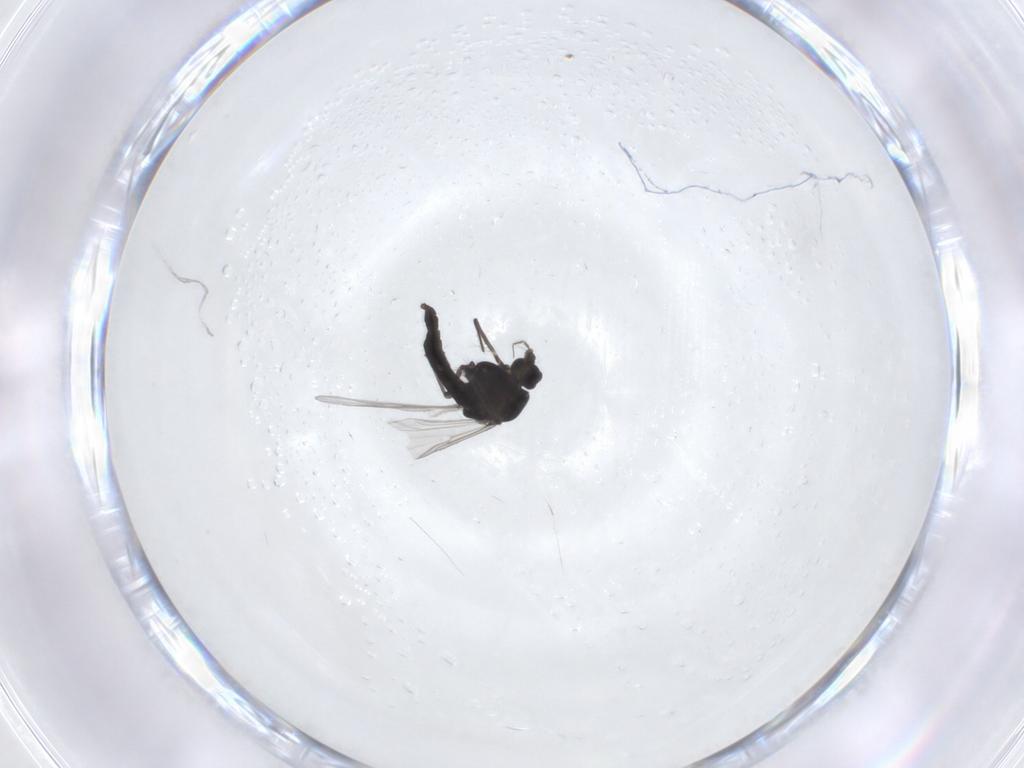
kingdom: Animalia
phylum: Arthropoda
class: Insecta
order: Diptera
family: Chironomidae
